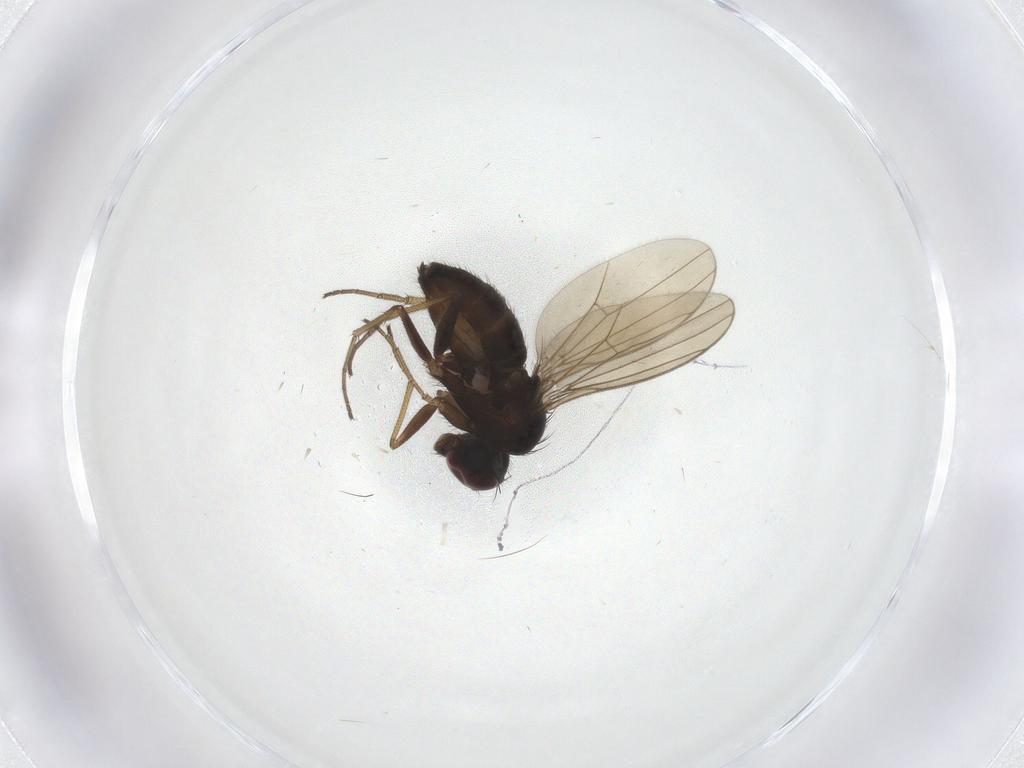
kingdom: Animalia
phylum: Arthropoda
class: Insecta
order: Diptera
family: Dolichopodidae
